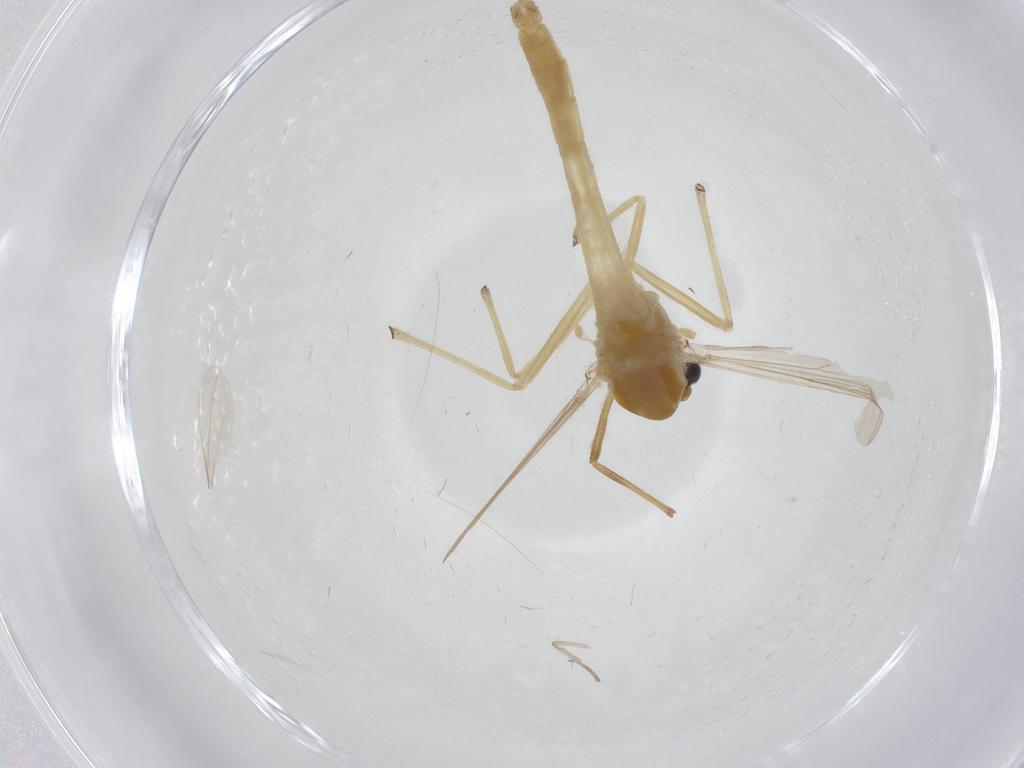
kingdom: Animalia
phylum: Arthropoda
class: Insecta
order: Diptera
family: Chironomidae
